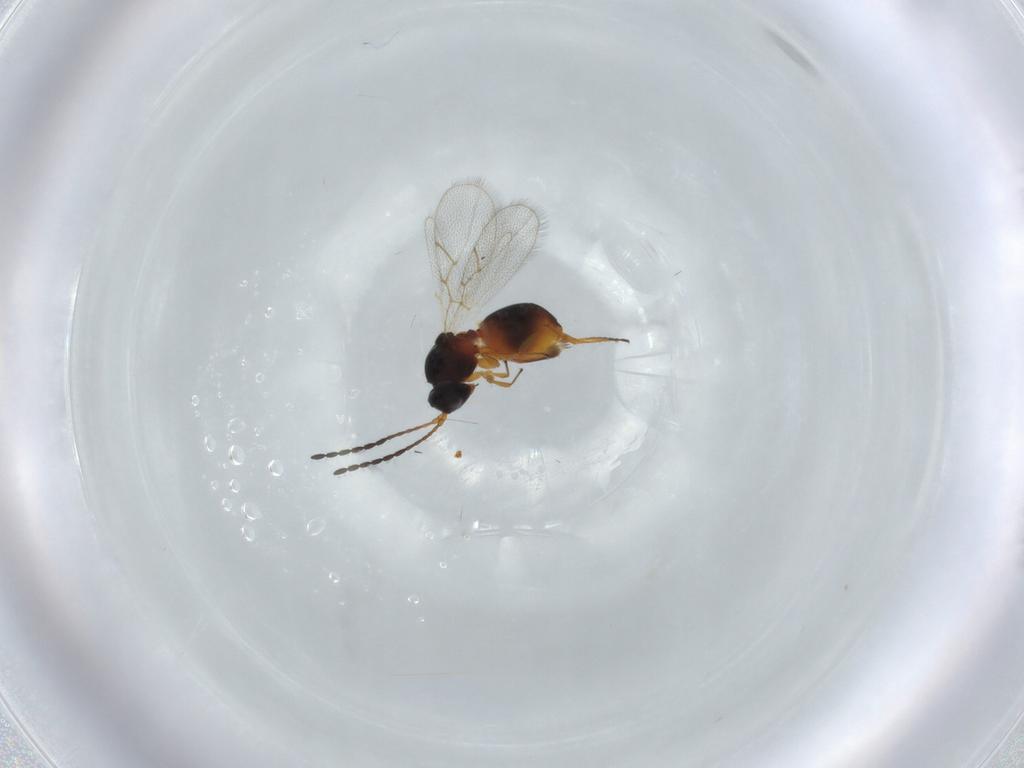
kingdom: Animalia
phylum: Arthropoda
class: Insecta
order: Hymenoptera
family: Figitidae
